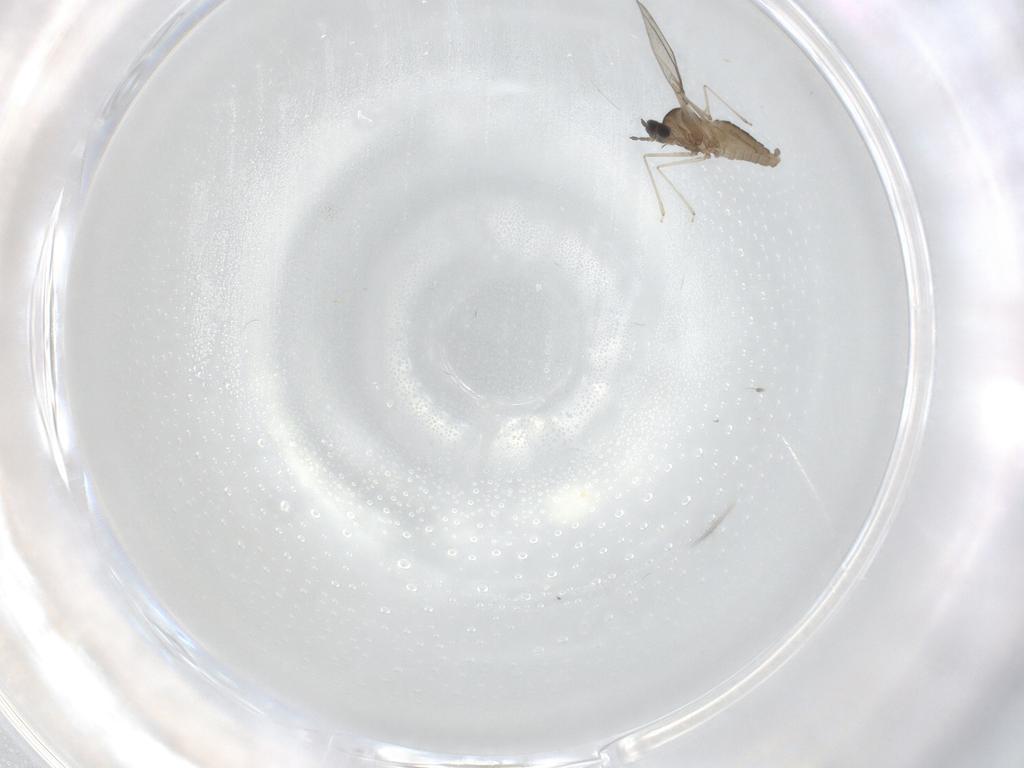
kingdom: Animalia
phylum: Arthropoda
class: Insecta
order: Diptera
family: Cecidomyiidae
